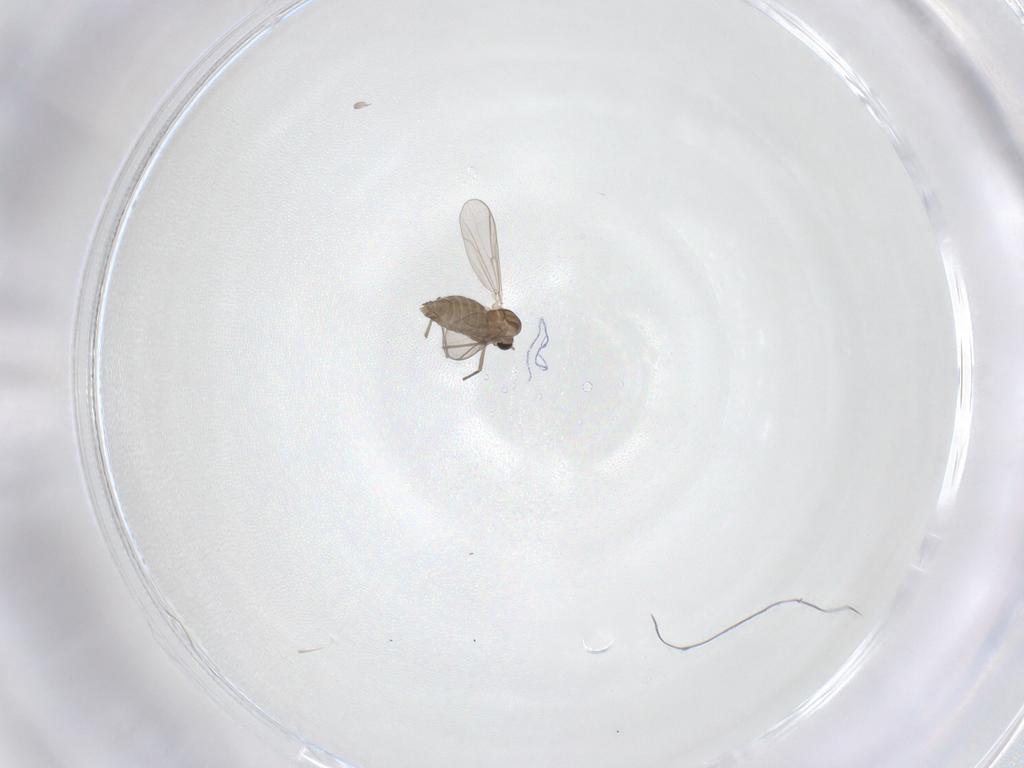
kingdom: Animalia
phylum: Arthropoda
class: Insecta
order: Diptera
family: Chironomidae
